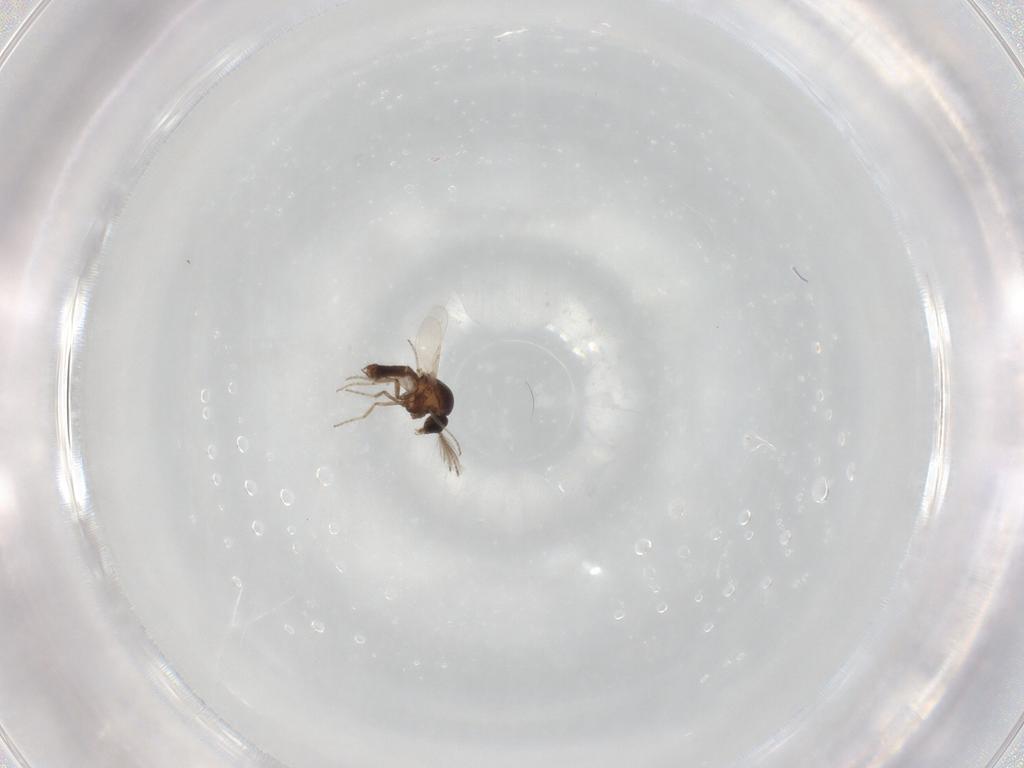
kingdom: Animalia
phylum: Arthropoda
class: Insecta
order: Diptera
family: Ceratopogonidae
